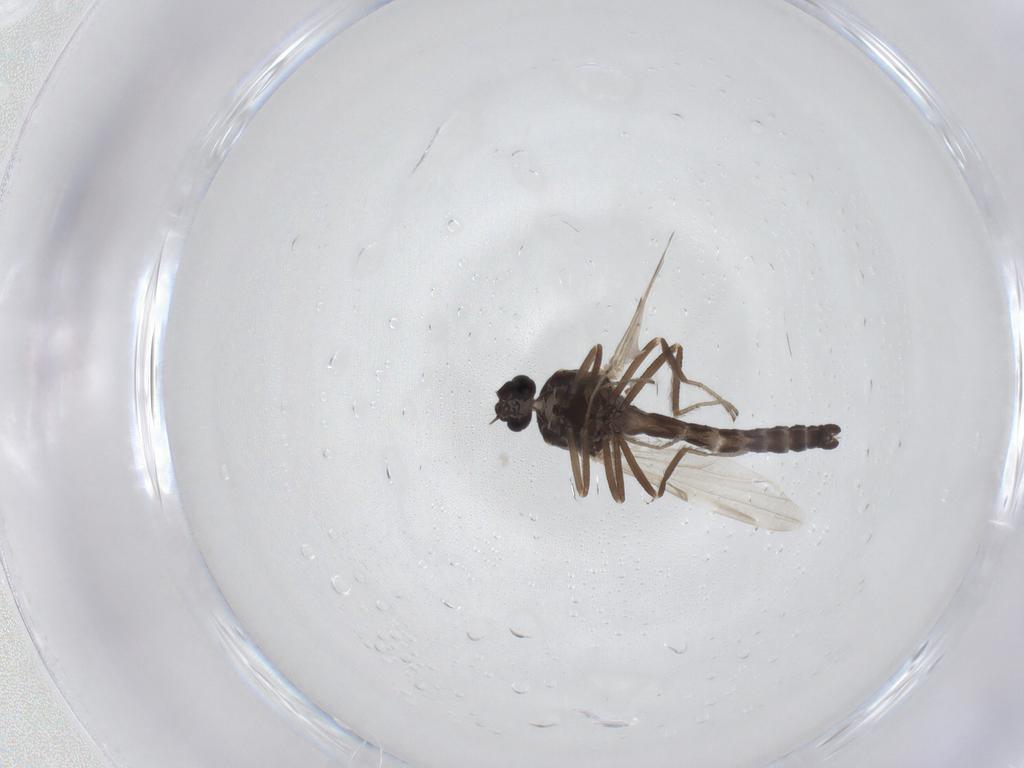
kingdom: Animalia
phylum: Arthropoda
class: Insecta
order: Diptera
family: Ceratopogonidae
